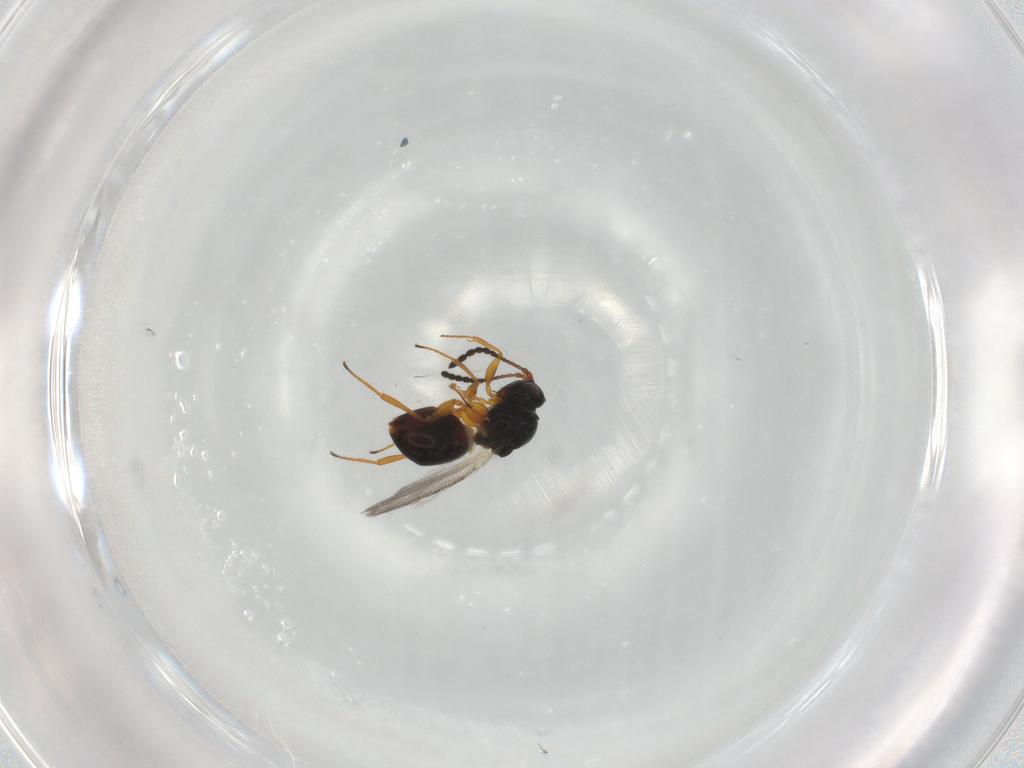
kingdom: Animalia
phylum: Arthropoda
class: Insecta
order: Hymenoptera
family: Figitidae
